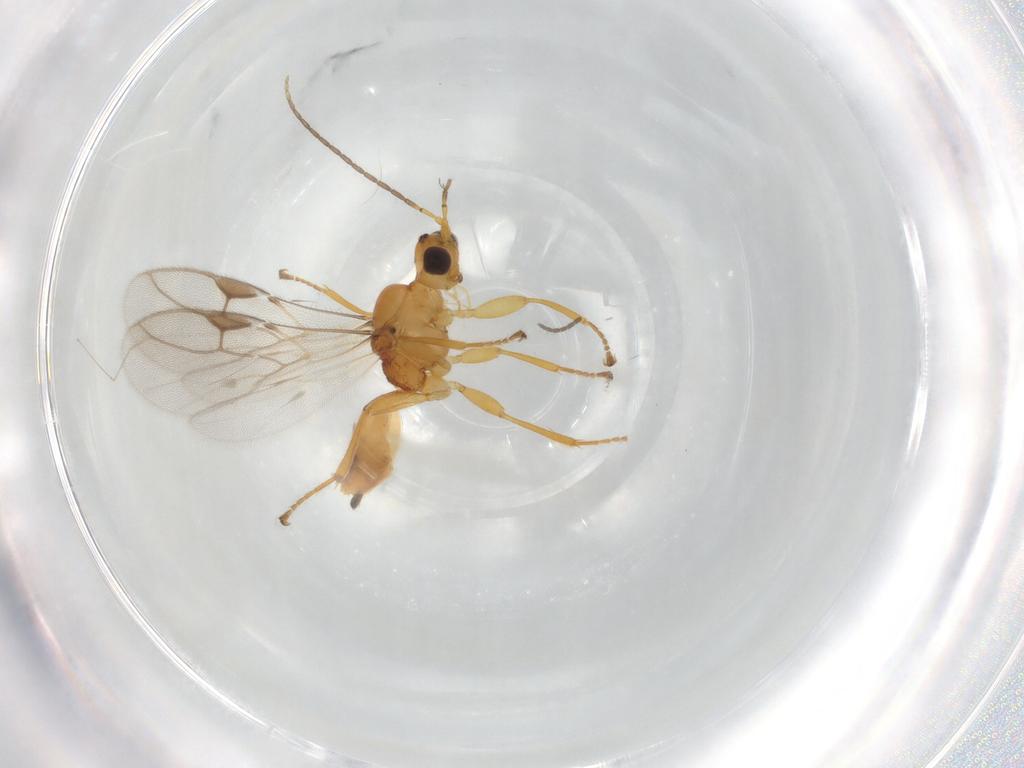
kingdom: Animalia
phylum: Arthropoda
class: Insecta
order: Hymenoptera
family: Braconidae
